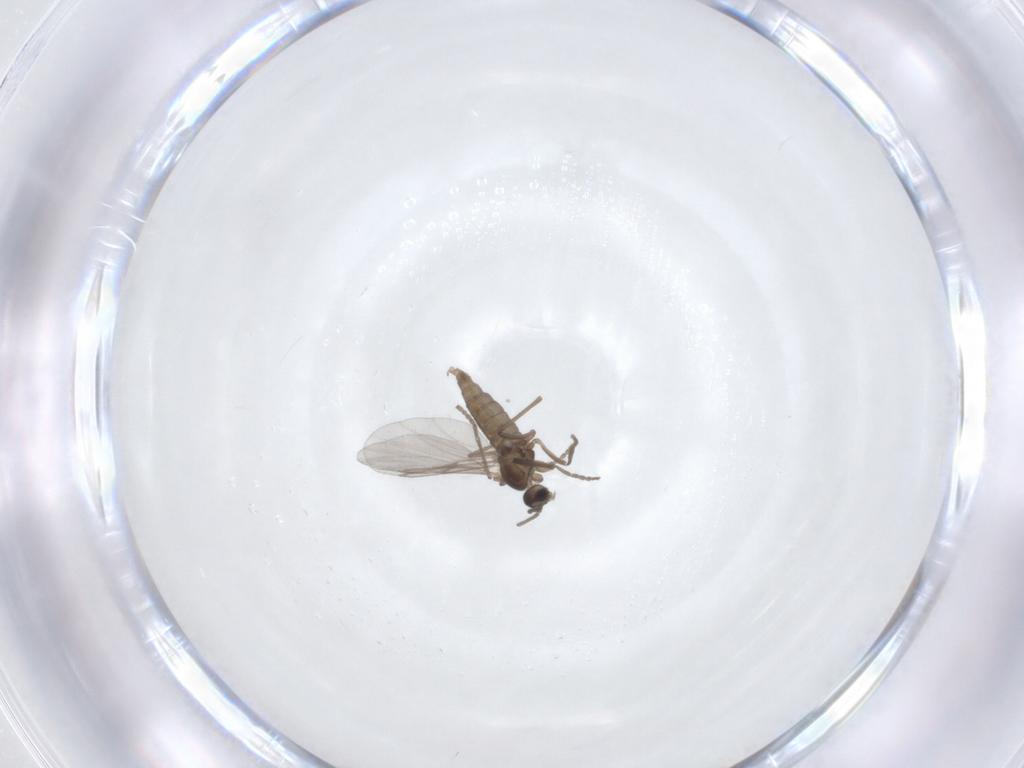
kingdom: Animalia
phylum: Arthropoda
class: Insecta
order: Diptera
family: Cecidomyiidae
